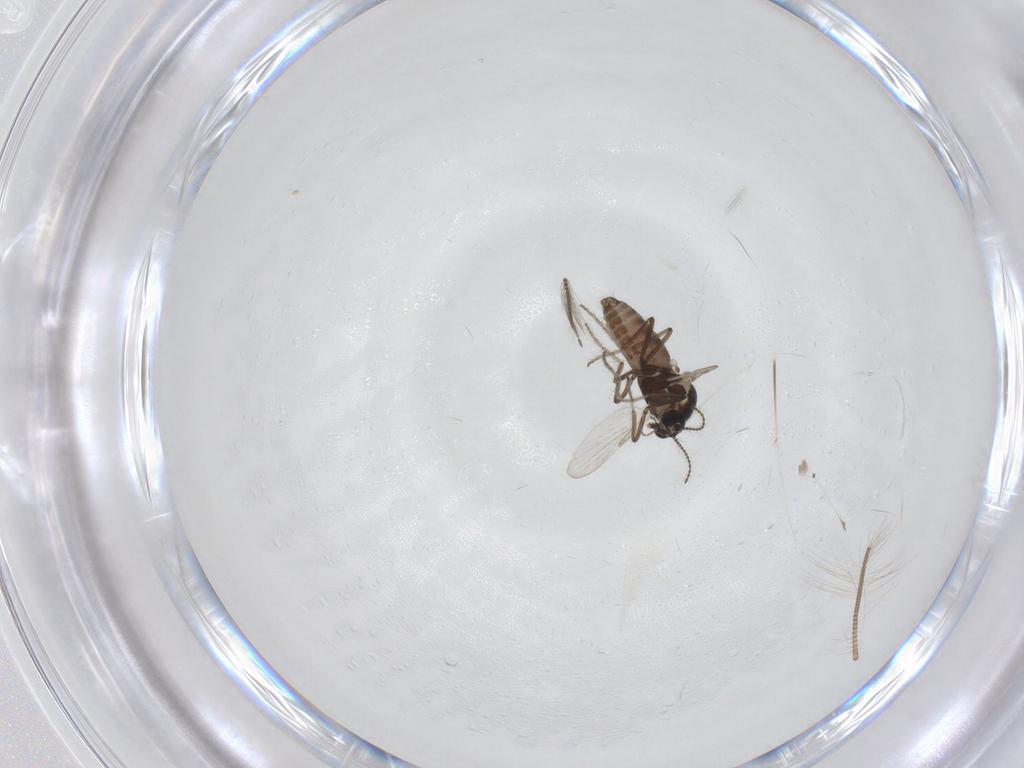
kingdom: Animalia
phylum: Arthropoda
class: Insecta
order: Diptera
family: Ceratopogonidae
